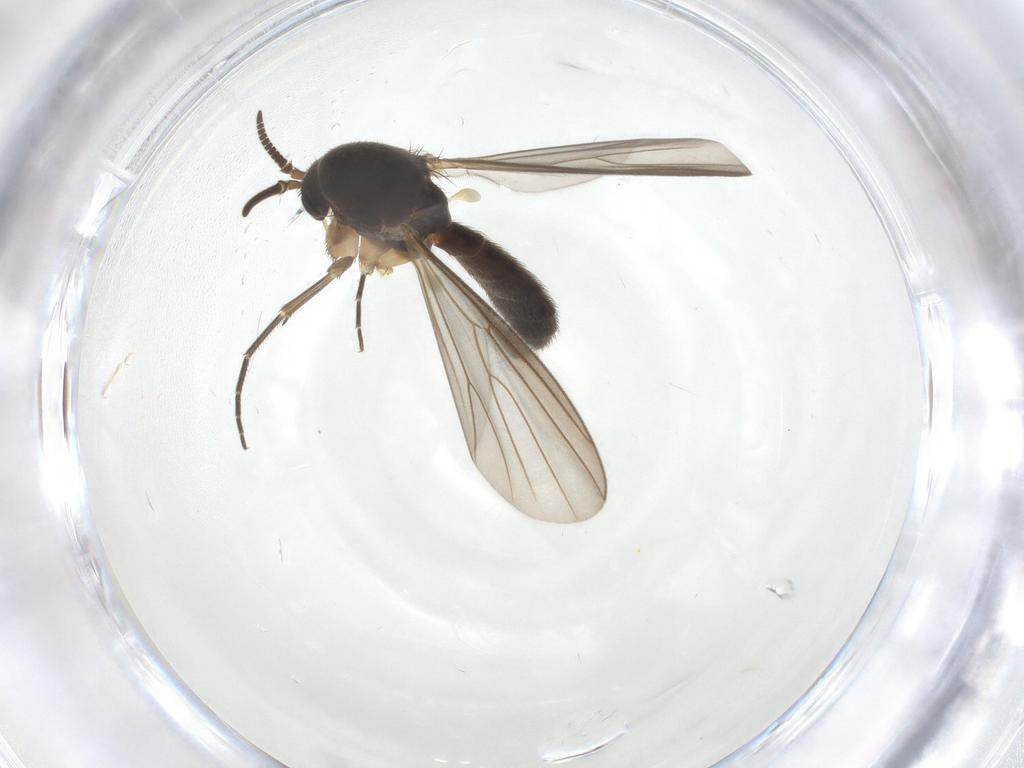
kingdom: Animalia
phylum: Arthropoda
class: Insecta
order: Diptera
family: Mycetophilidae
